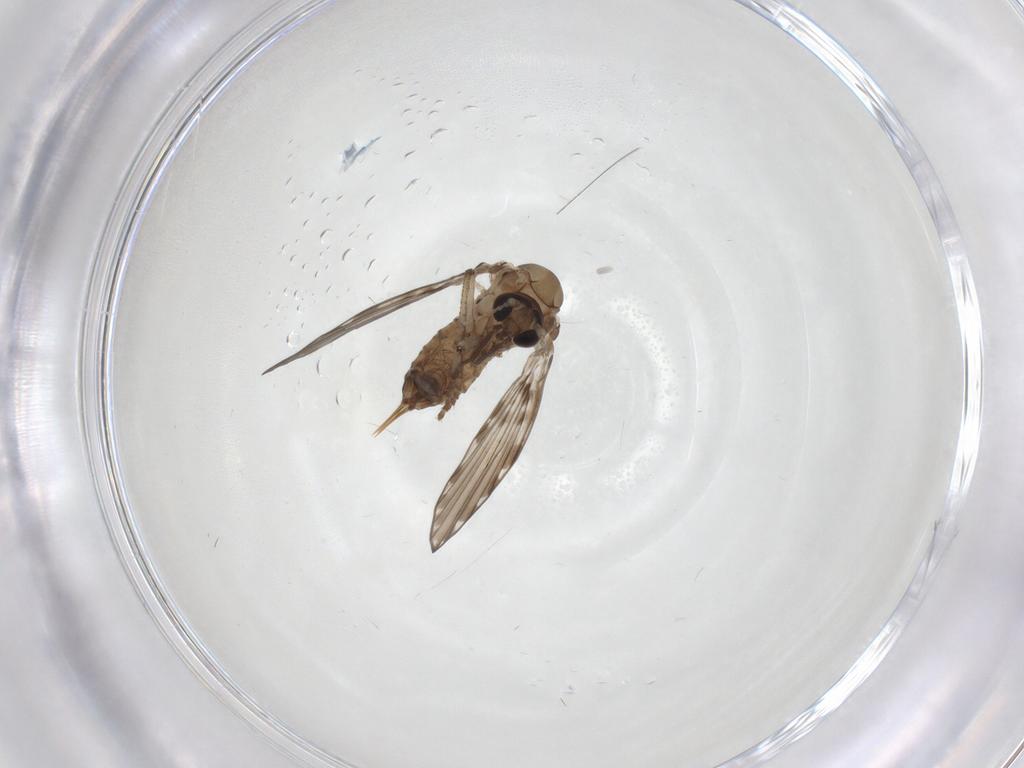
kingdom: Animalia
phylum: Arthropoda
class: Insecta
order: Diptera
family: Psychodidae
